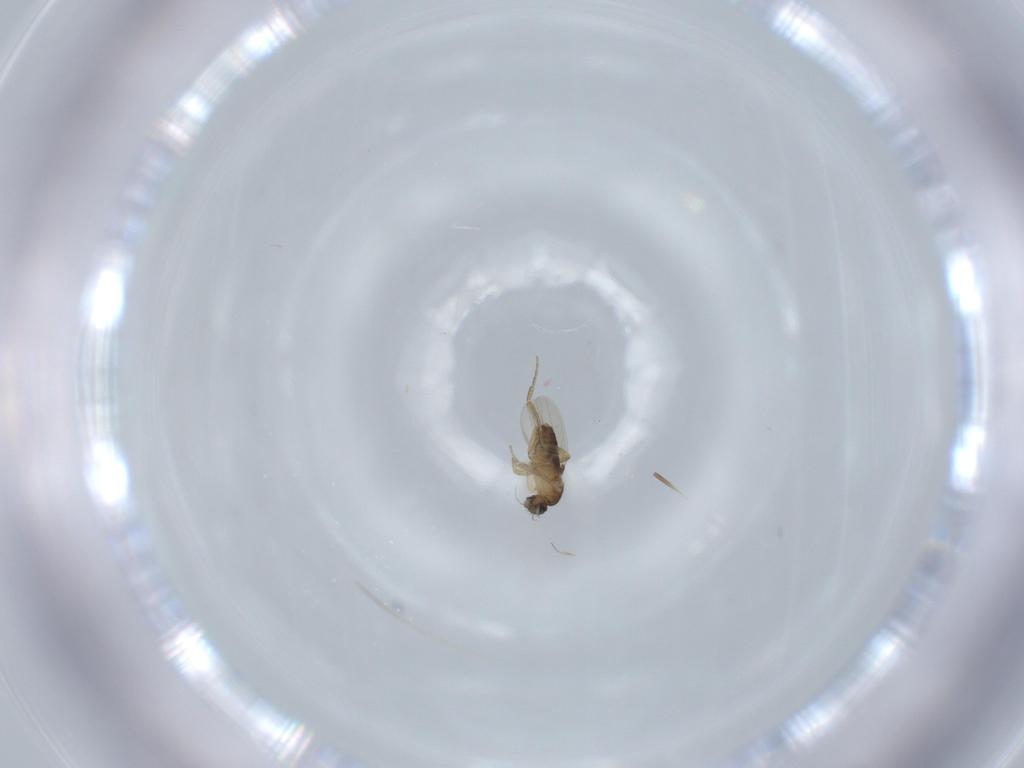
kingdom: Animalia
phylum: Arthropoda
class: Insecta
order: Diptera
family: Phoridae
